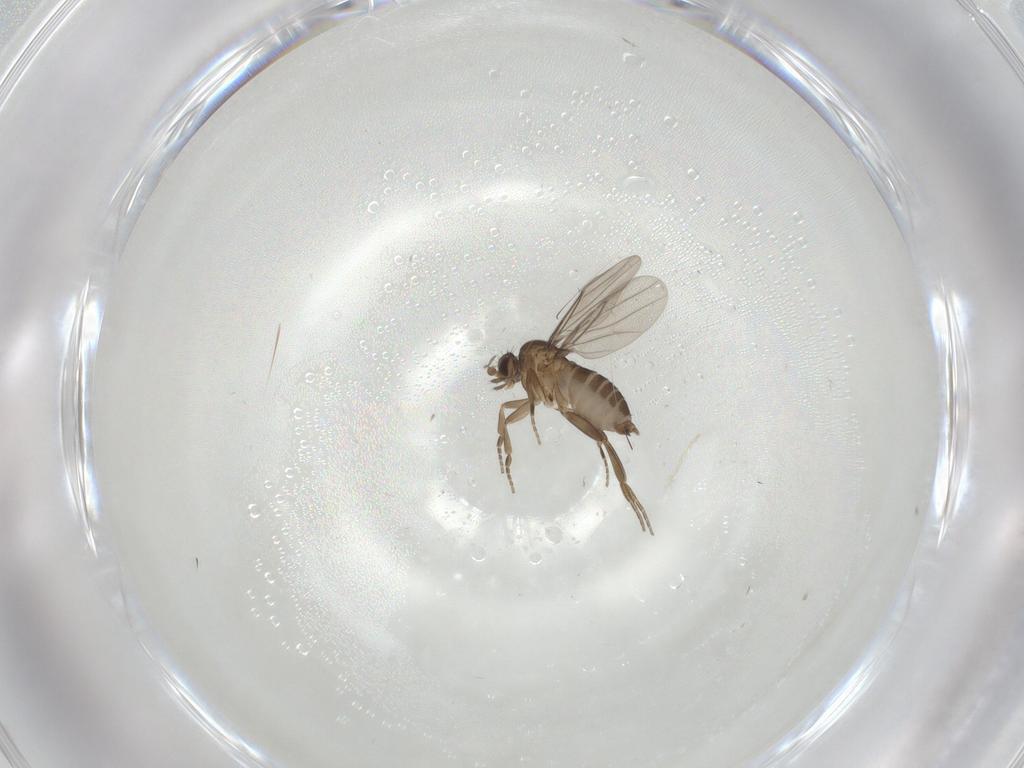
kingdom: Animalia
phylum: Arthropoda
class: Insecta
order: Diptera
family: Phoridae
